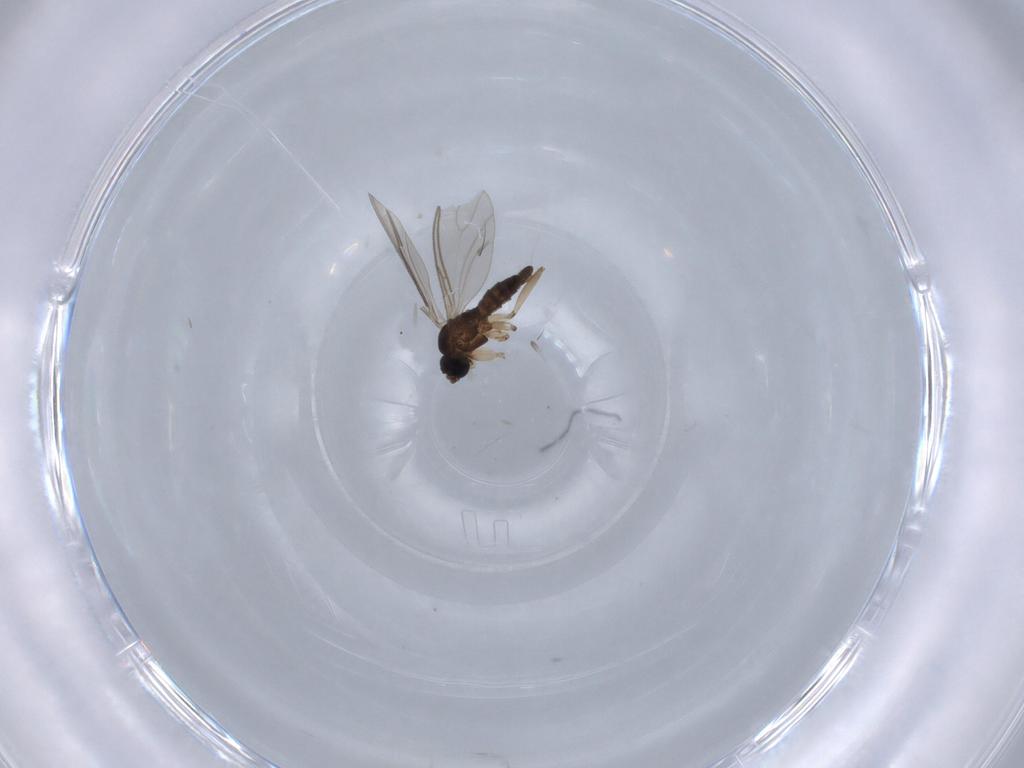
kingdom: Animalia
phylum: Arthropoda
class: Insecta
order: Diptera
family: Muscidae
